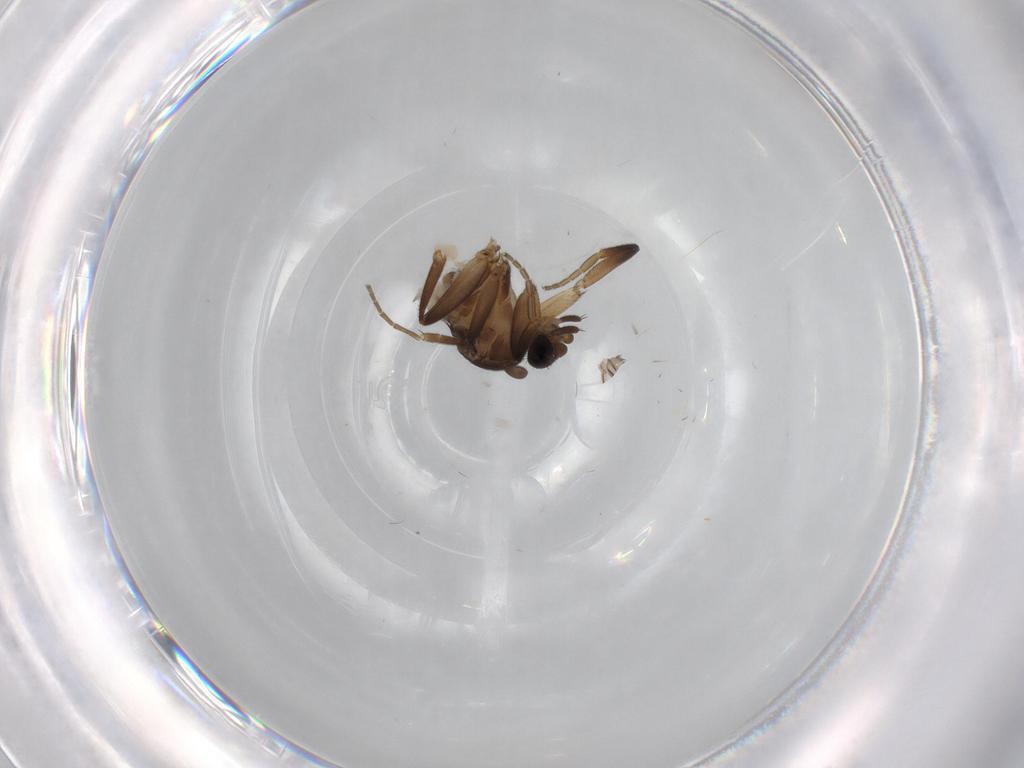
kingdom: Animalia
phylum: Arthropoda
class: Insecta
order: Diptera
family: Phoridae
